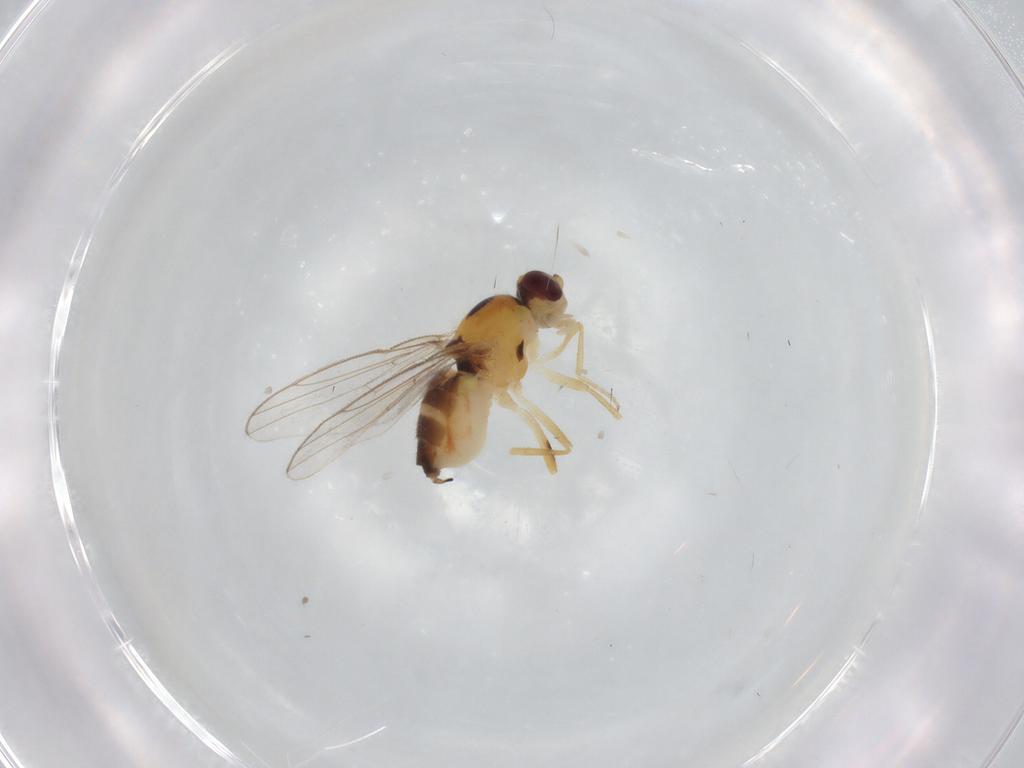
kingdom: Animalia
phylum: Arthropoda
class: Insecta
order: Diptera
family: Chloropidae
